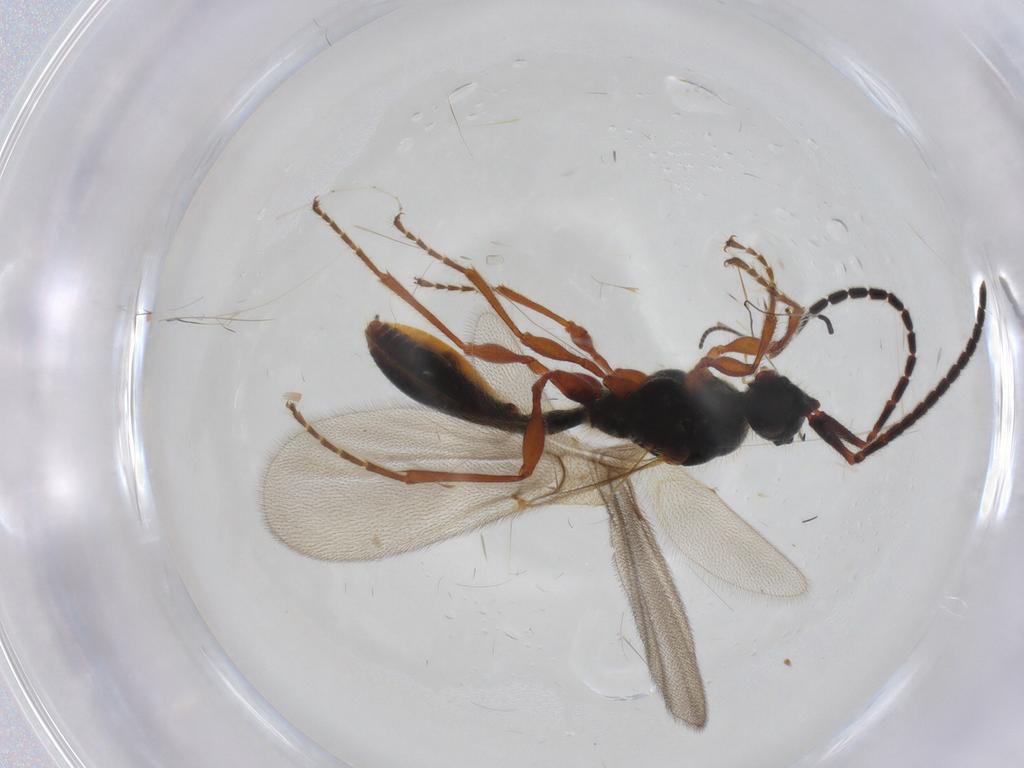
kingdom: Animalia
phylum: Arthropoda
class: Insecta
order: Hymenoptera
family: Diapriidae
